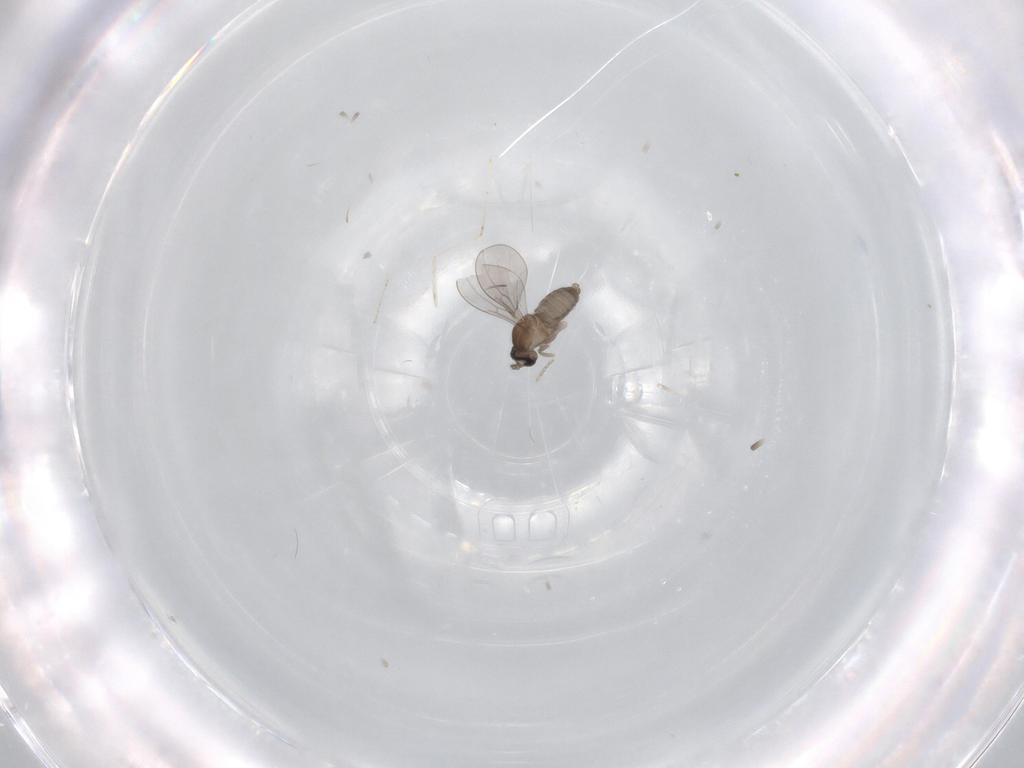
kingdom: Animalia
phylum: Arthropoda
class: Insecta
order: Diptera
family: Cecidomyiidae
